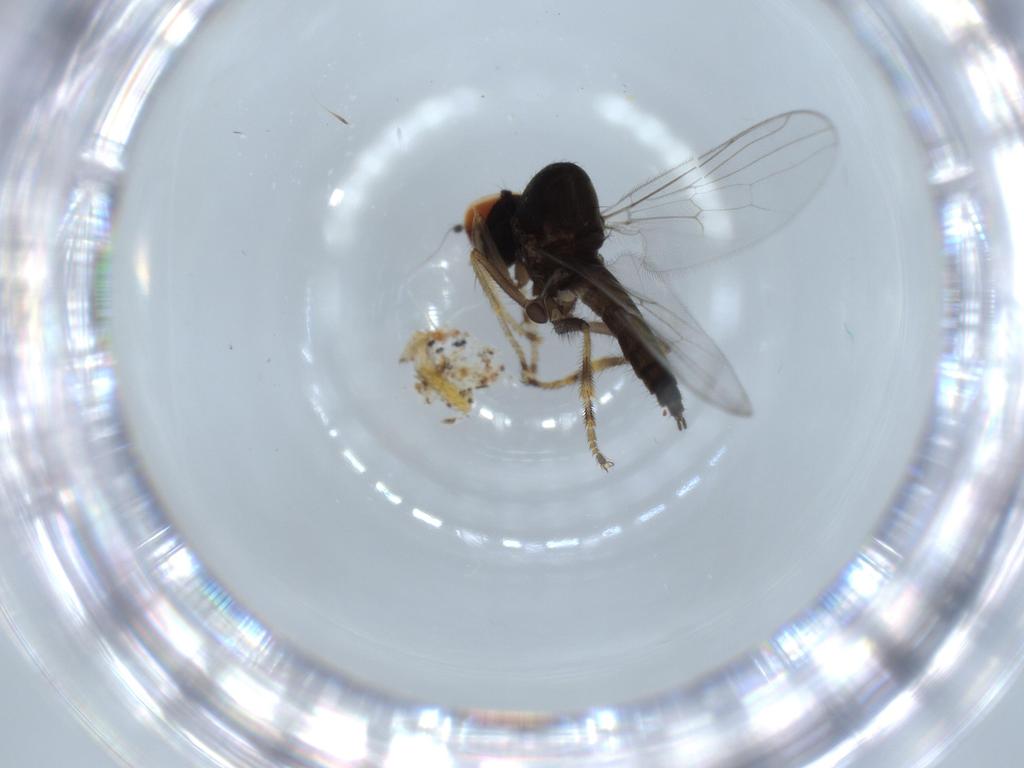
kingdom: Animalia
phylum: Arthropoda
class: Insecta
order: Diptera
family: Hybotidae
